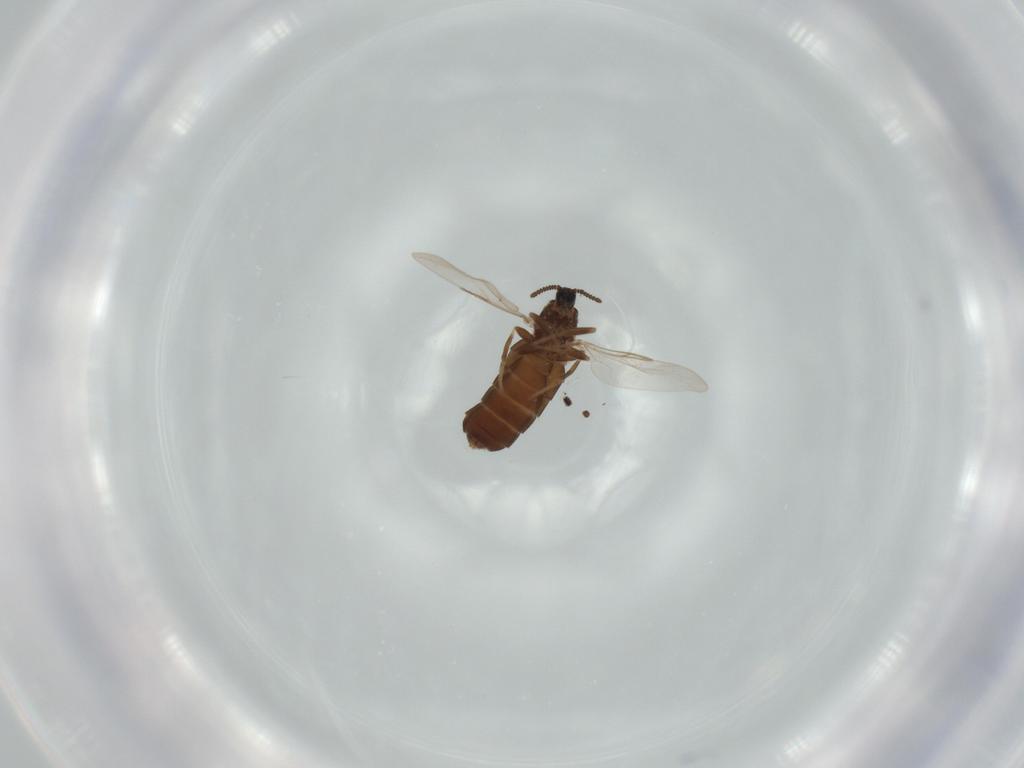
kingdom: Animalia
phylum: Arthropoda
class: Insecta
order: Diptera
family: Scatopsidae
